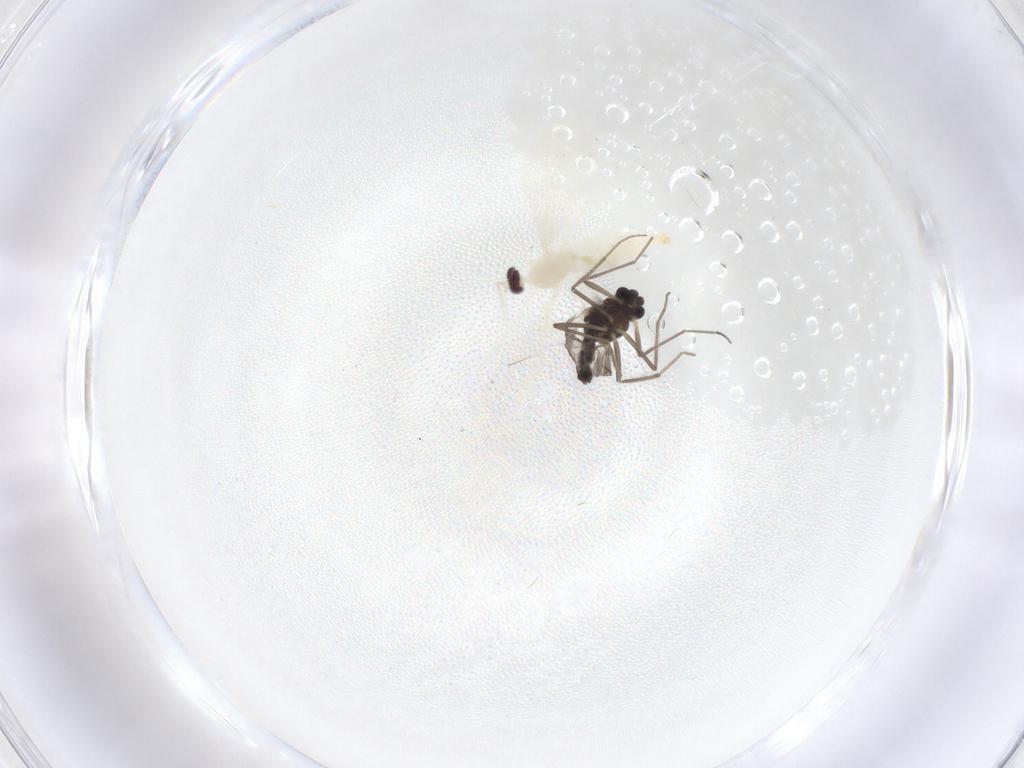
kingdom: Animalia
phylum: Arthropoda
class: Insecta
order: Diptera
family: Cecidomyiidae
